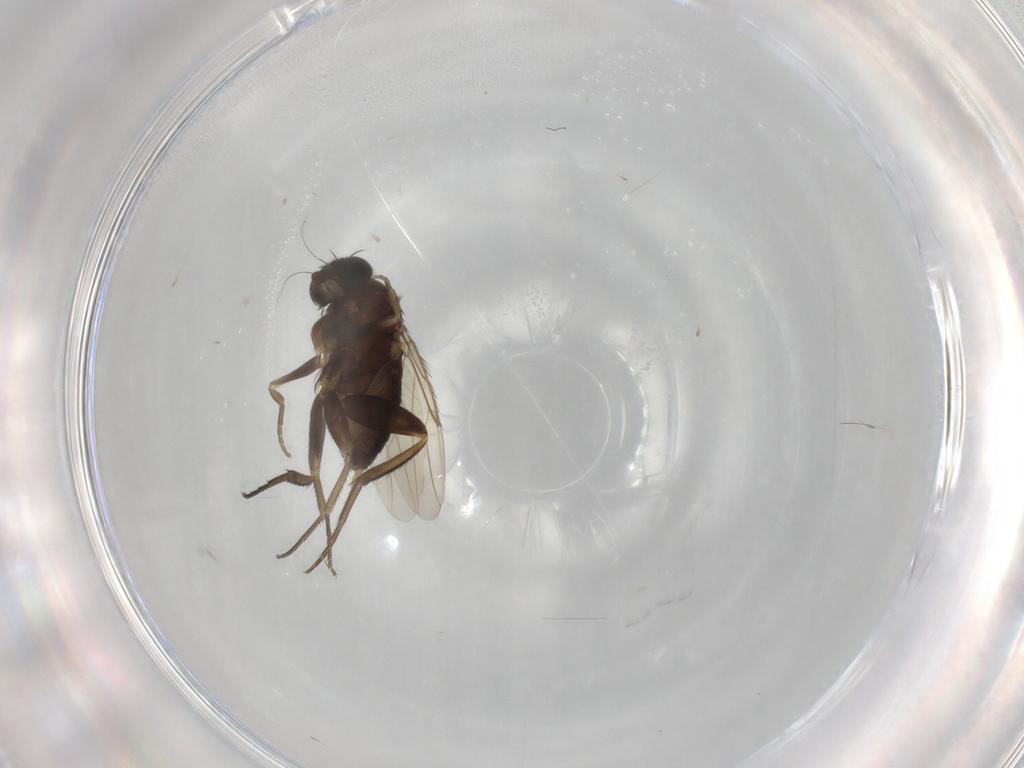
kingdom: Animalia
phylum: Arthropoda
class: Insecta
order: Diptera
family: Phoridae
